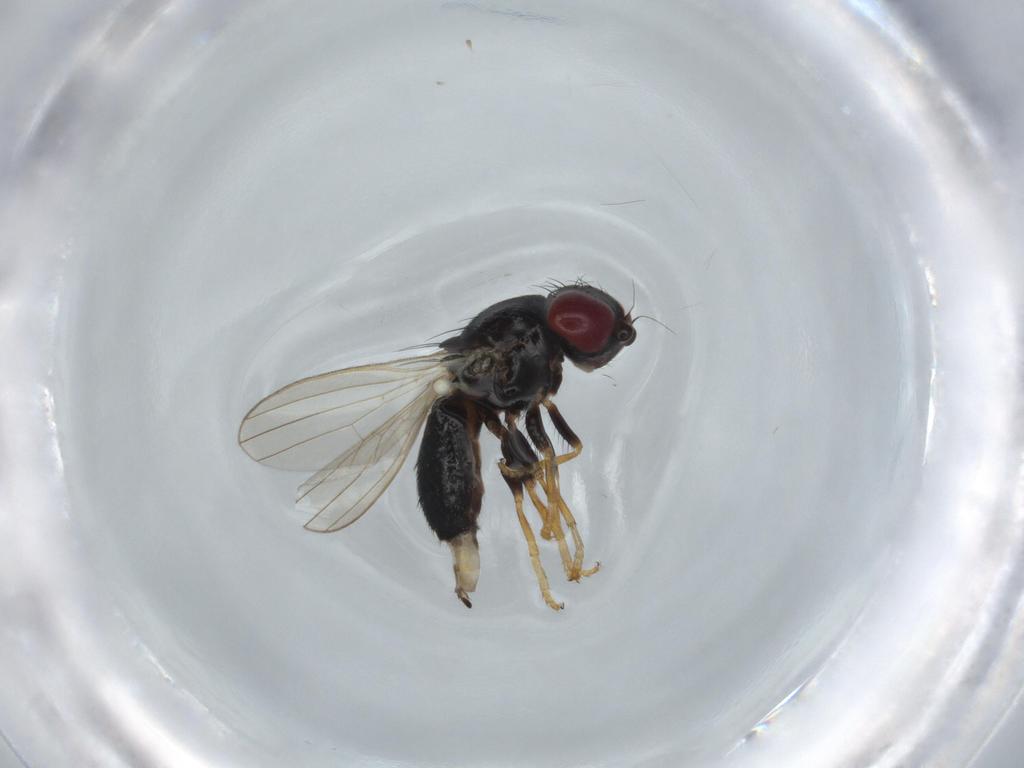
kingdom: Animalia
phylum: Arthropoda
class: Insecta
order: Diptera
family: Chamaemyiidae
